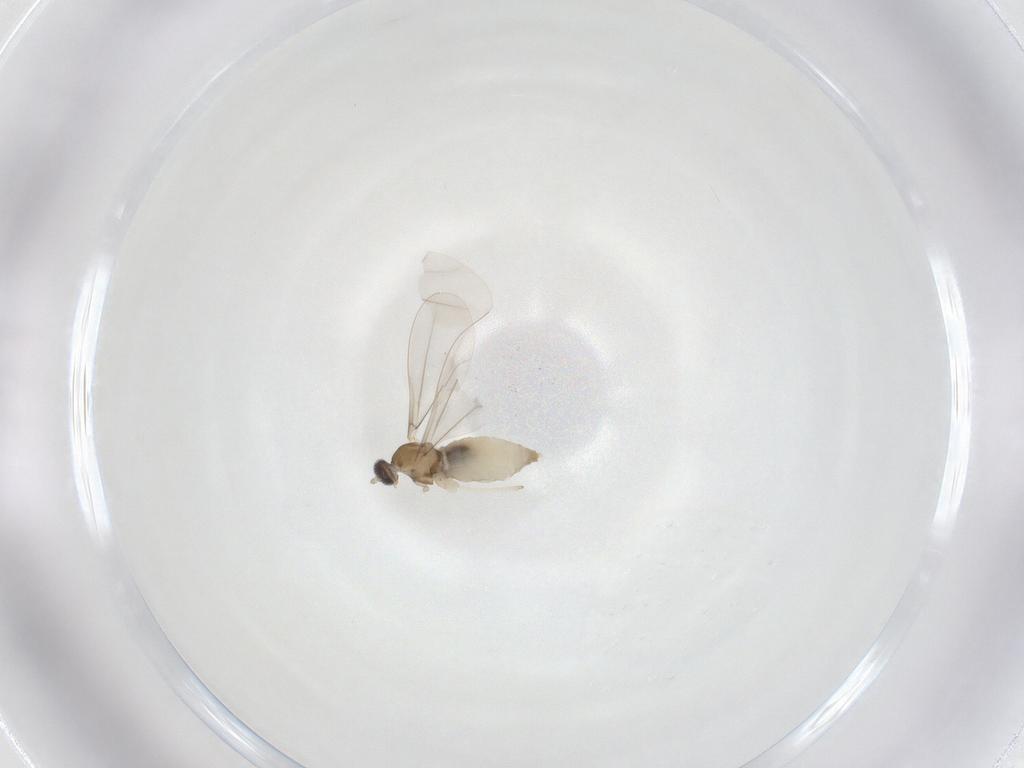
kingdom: Animalia
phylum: Arthropoda
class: Insecta
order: Diptera
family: Cecidomyiidae
